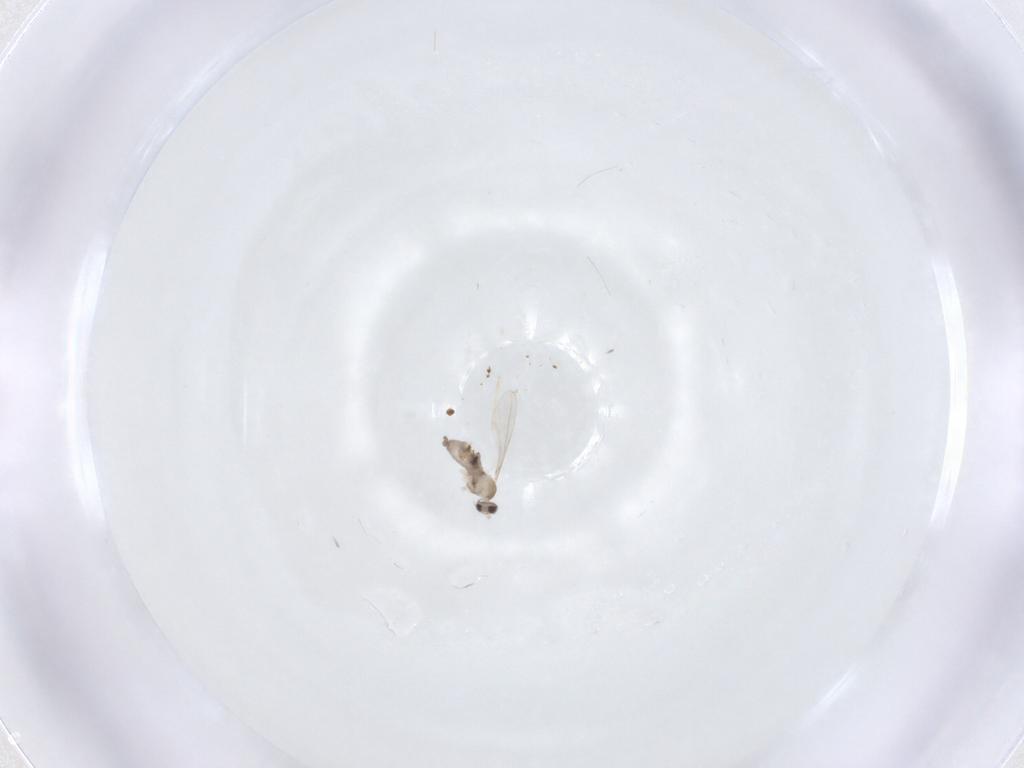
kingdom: Animalia
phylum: Arthropoda
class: Insecta
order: Diptera
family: Cecidomyiidae
